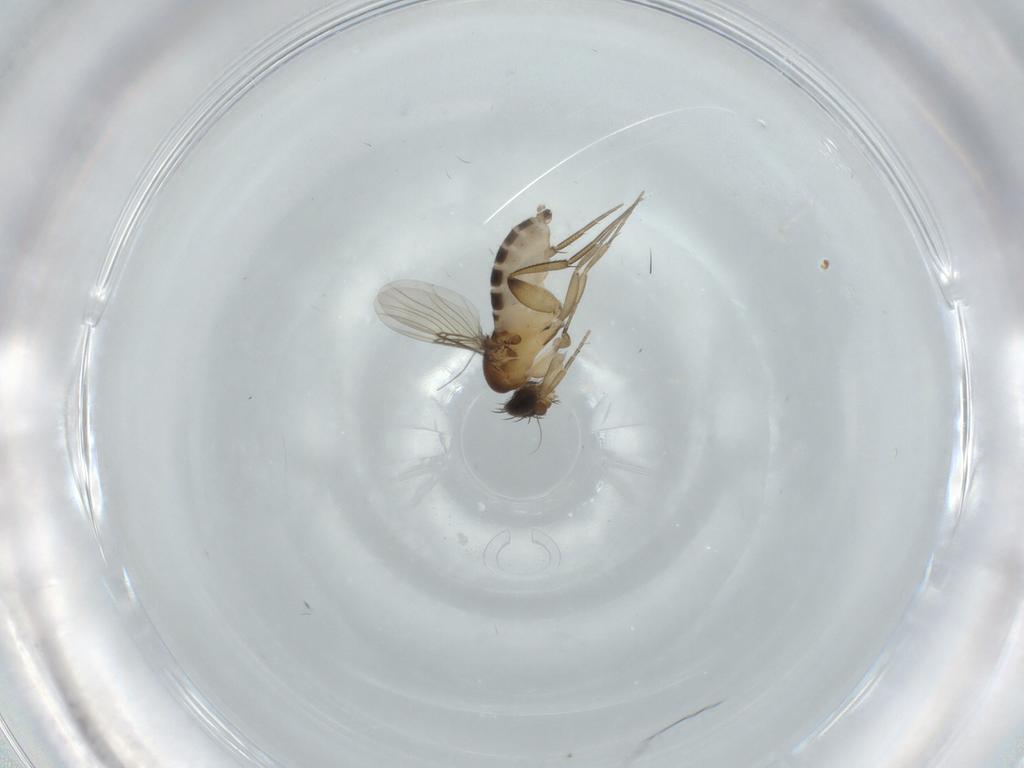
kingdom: Animalia
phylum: Arthropoda
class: Insecta
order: Diptera
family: Phoridae
